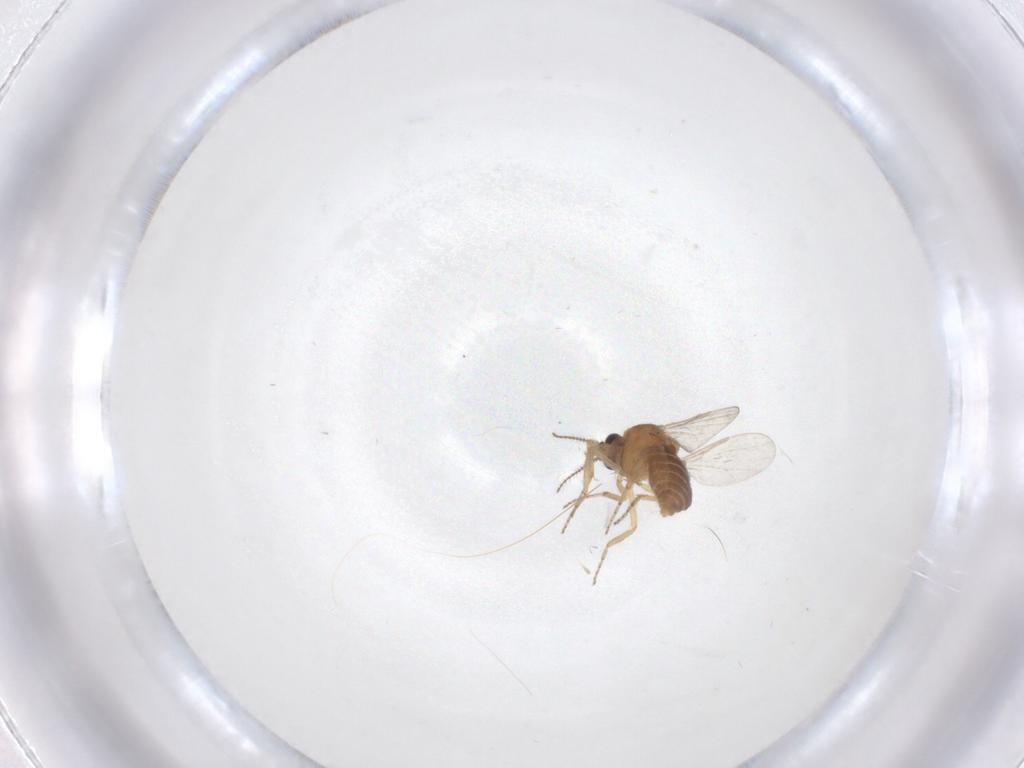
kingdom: Animalia
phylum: Arthropoda
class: Insecta
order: Diptera
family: Ceratopogonidae
